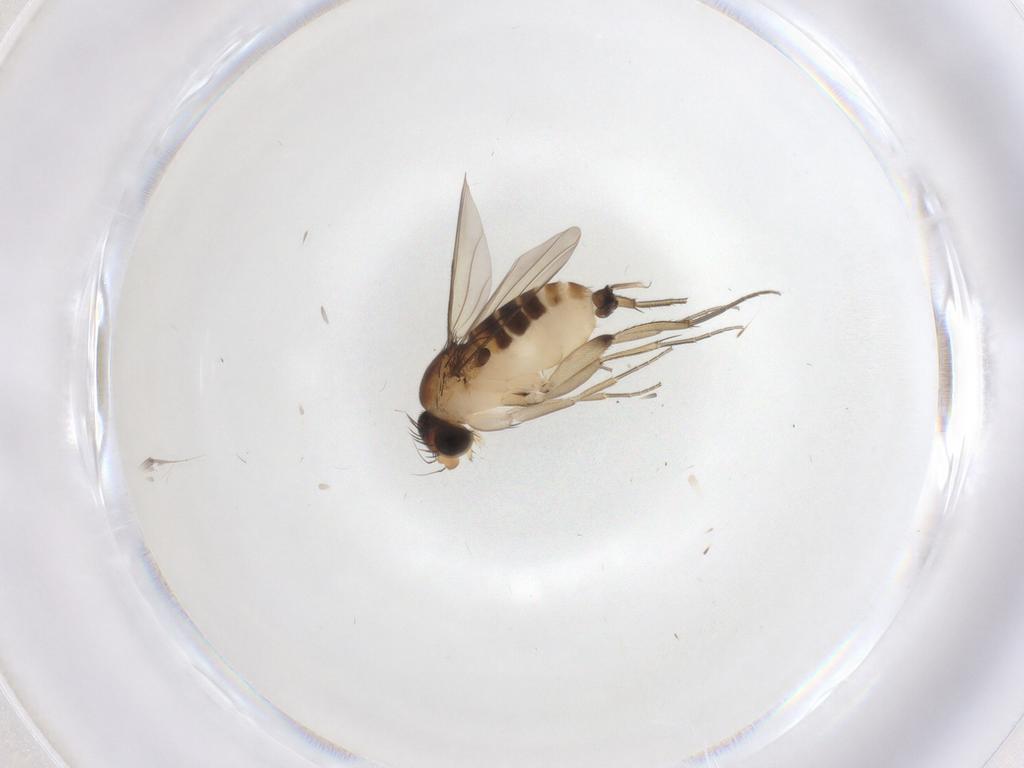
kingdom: Animalia
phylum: Arthropoda
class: Insecta
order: Diptera
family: Phoridae
